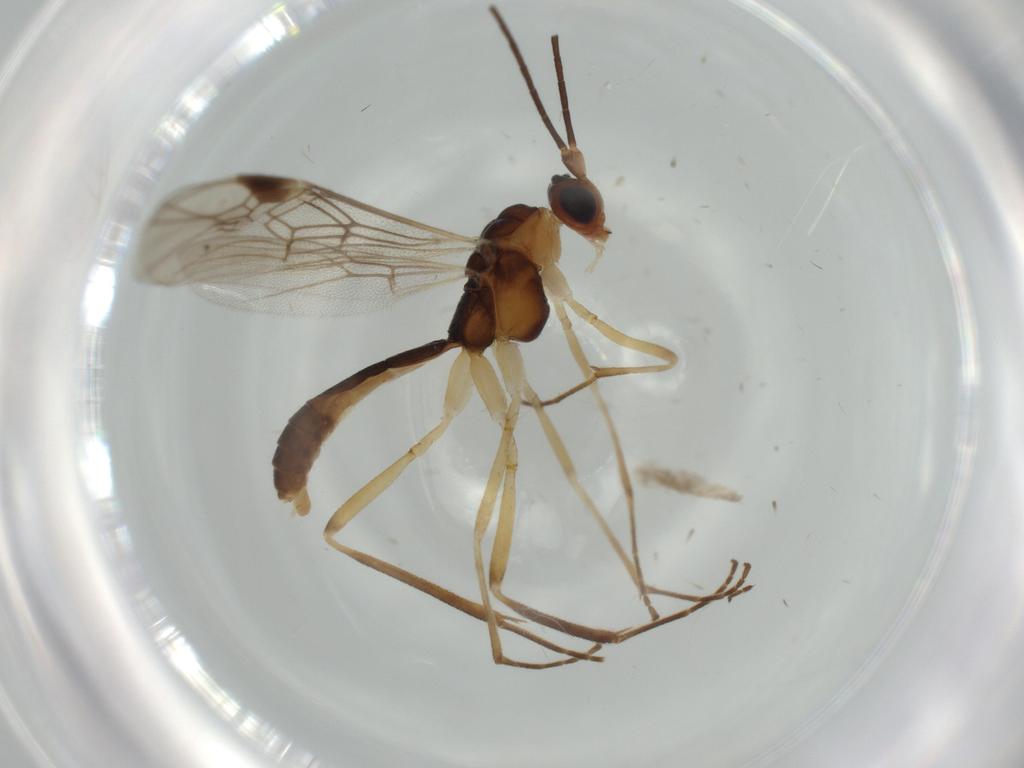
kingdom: Animalia
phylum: Arthropoda
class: Insecta
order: Hymenoptera
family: Braconidae
